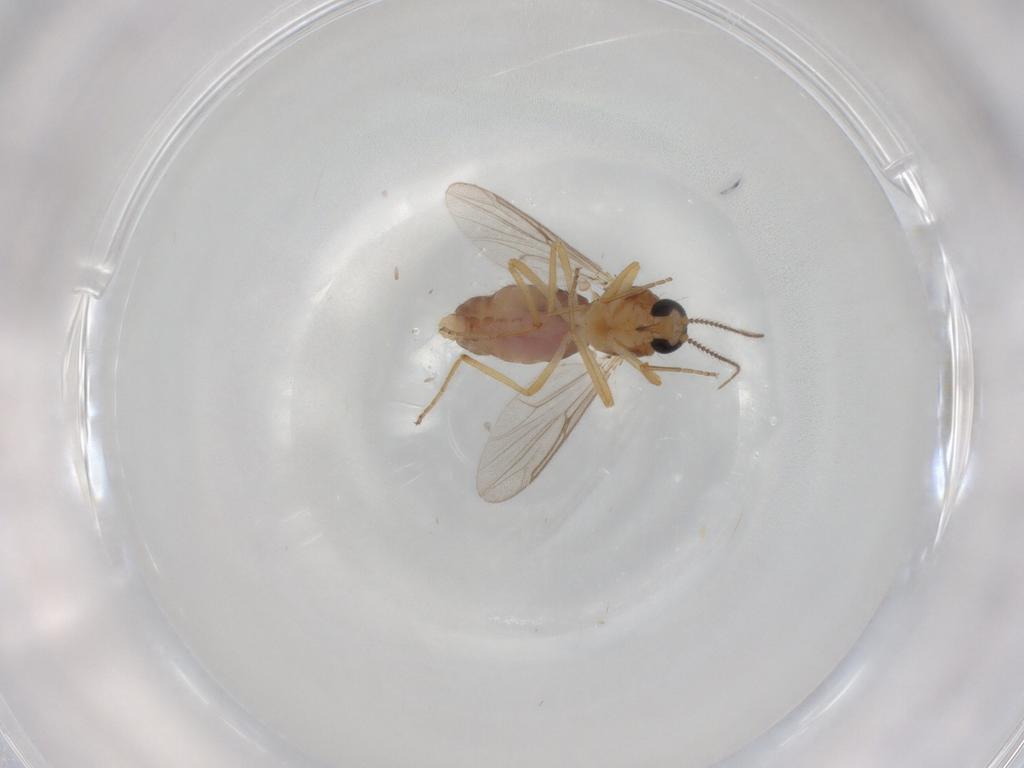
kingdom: Animalia
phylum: Arthropoda
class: Insecta
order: Diptera
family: Ceratopogonidae
